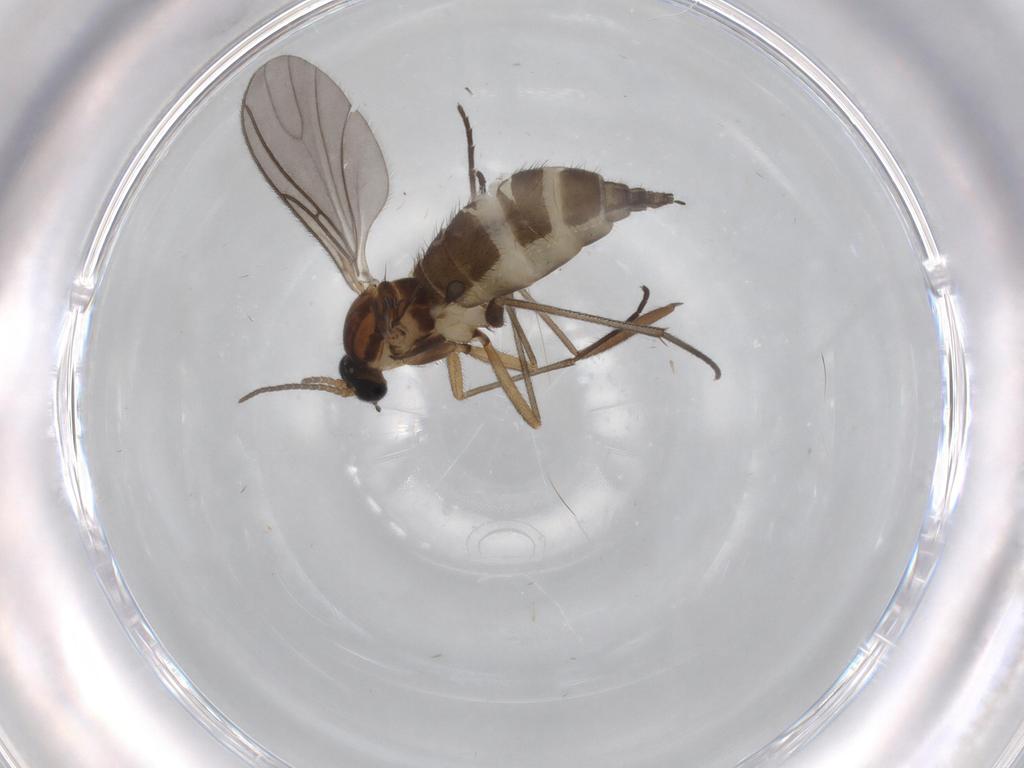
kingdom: Animalia
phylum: Arthropoda
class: Insecta
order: Diptera
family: Sciaridae
